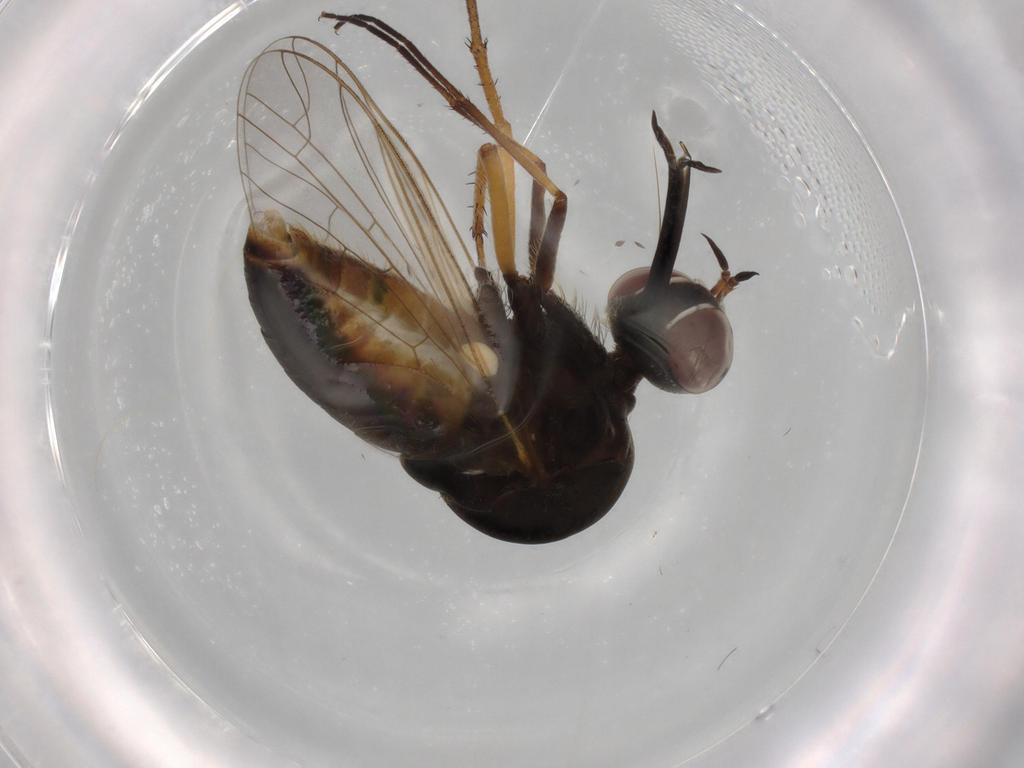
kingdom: Animalia
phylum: Arthropoda
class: Insecta
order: Diptera
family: Bombyliidae
